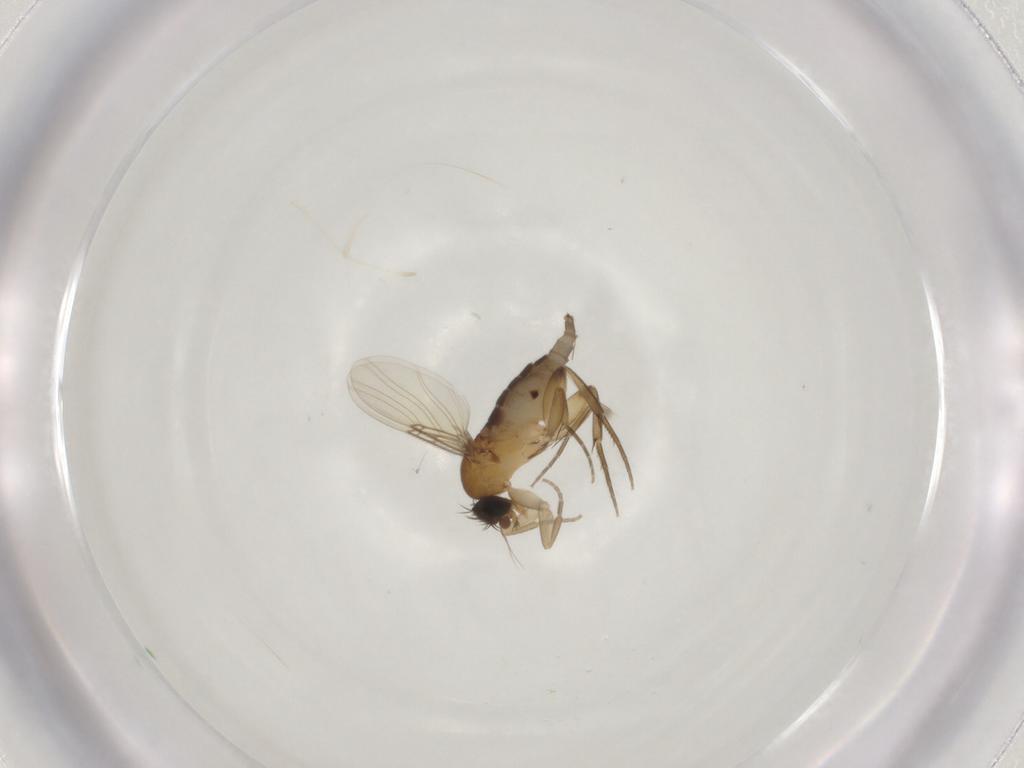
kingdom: Animalia
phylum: Arthropoda
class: Insecta
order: Diptera
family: Phoridae
